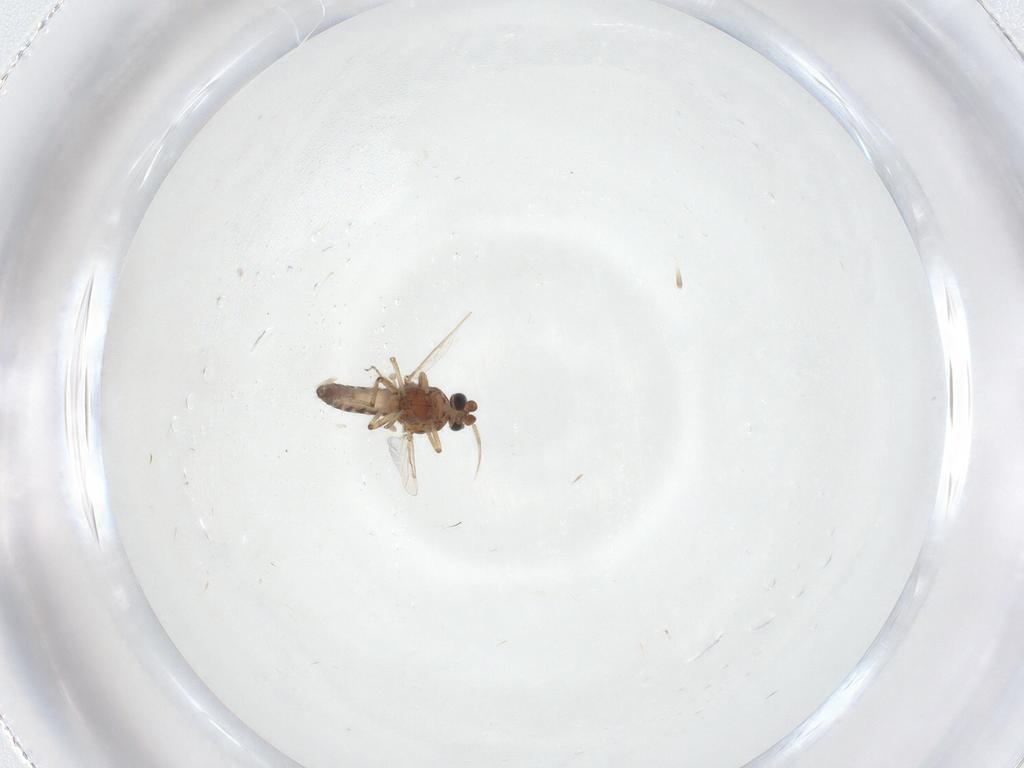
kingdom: Animalia
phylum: Arthropoda
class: Insecta
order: Diptera
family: Ceratopogonidae
